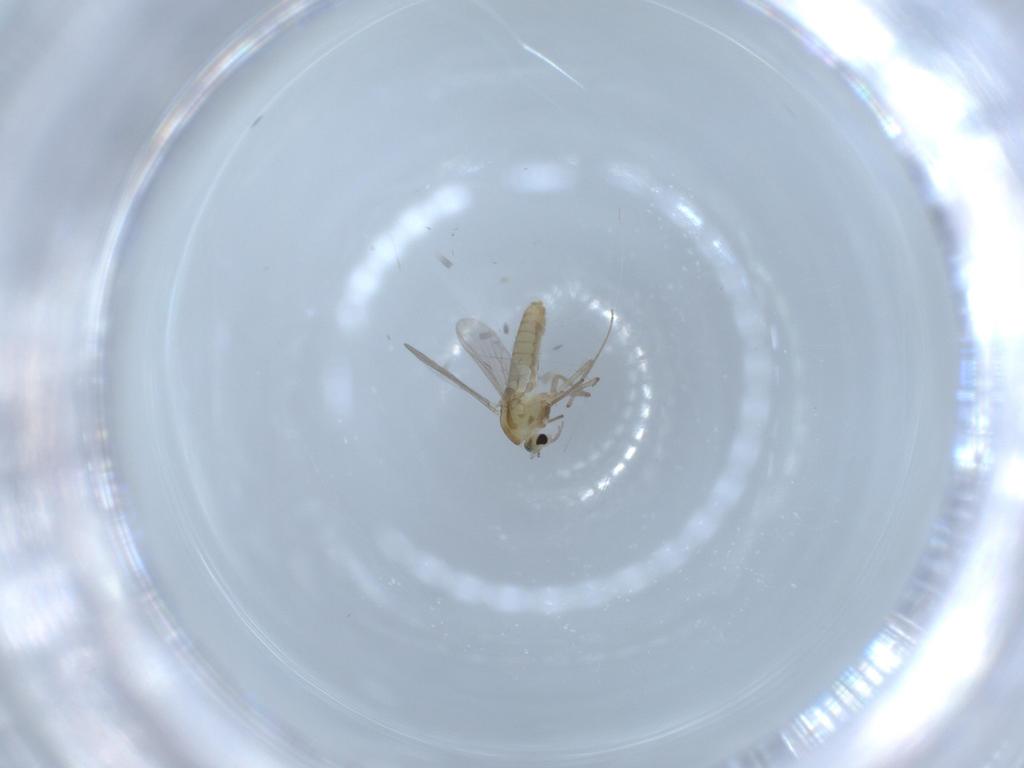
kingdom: Animalia
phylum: Arthropoda
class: Insecta
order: Diptera
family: Chironomidae
